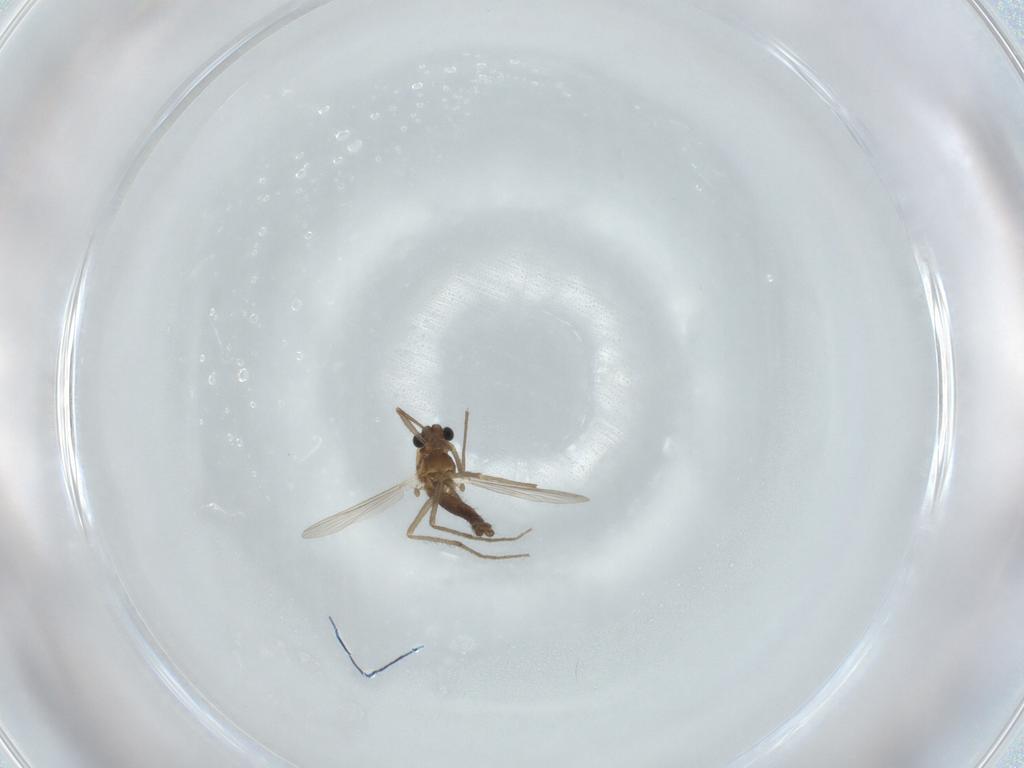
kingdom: Animalia
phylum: Arthropoda
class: Insecta
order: Diptera
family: Chironomidae
